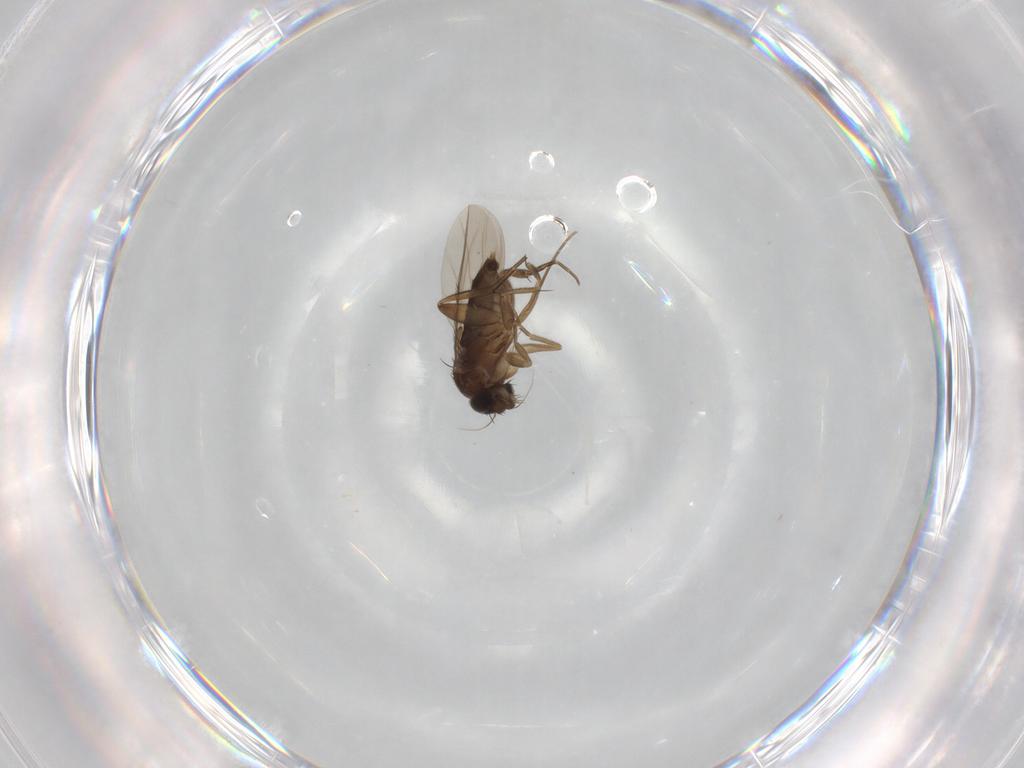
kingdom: Animalia
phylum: Arthropoda
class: Insecta
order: Diptera
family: Phoridae
